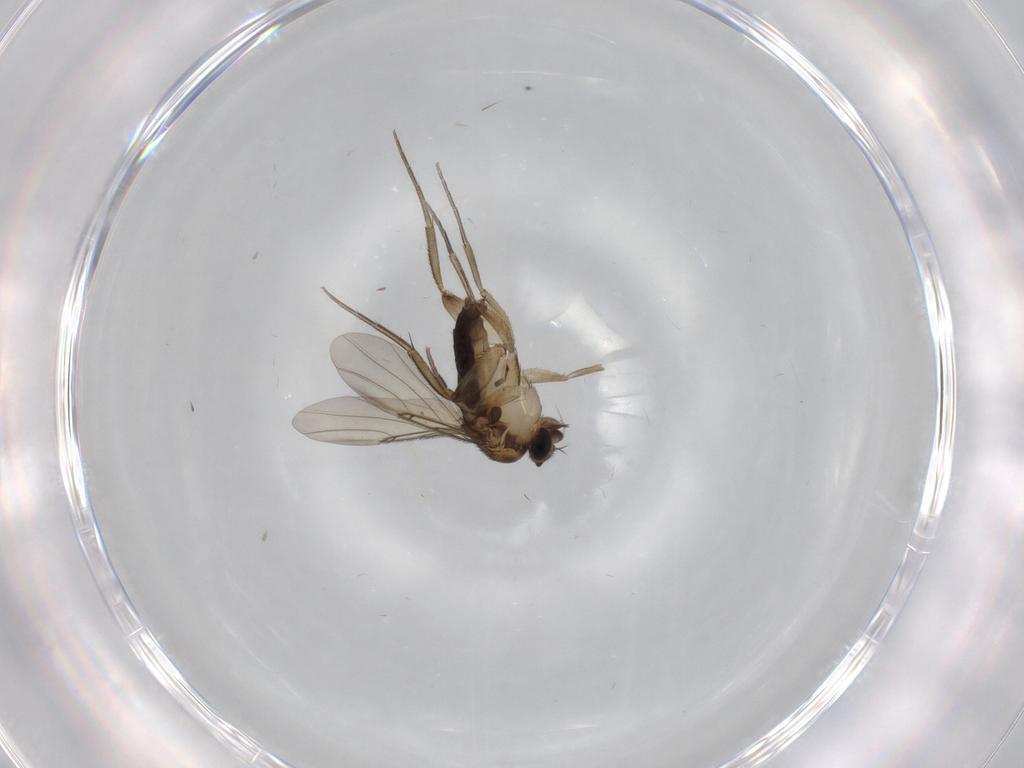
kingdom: Animalia
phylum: Arthropoda
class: Insecta
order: Diptera
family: Phoridae
